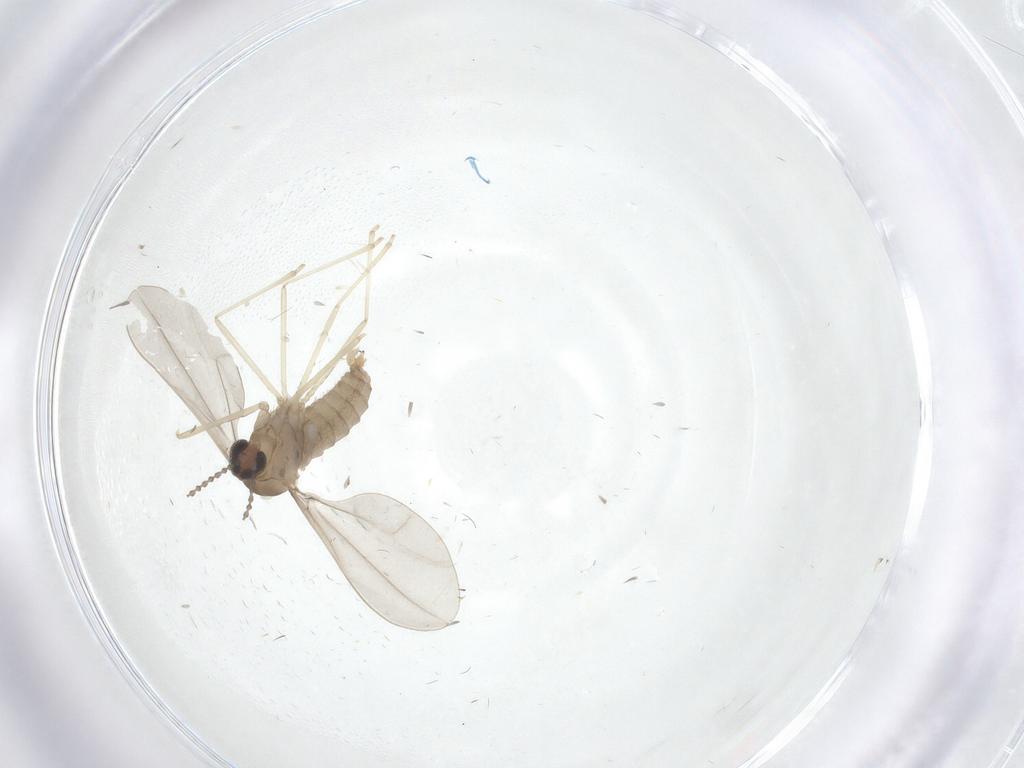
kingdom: Animalia
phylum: Arthropoda
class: Insecta
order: Diptera
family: Cecidomyiidae
